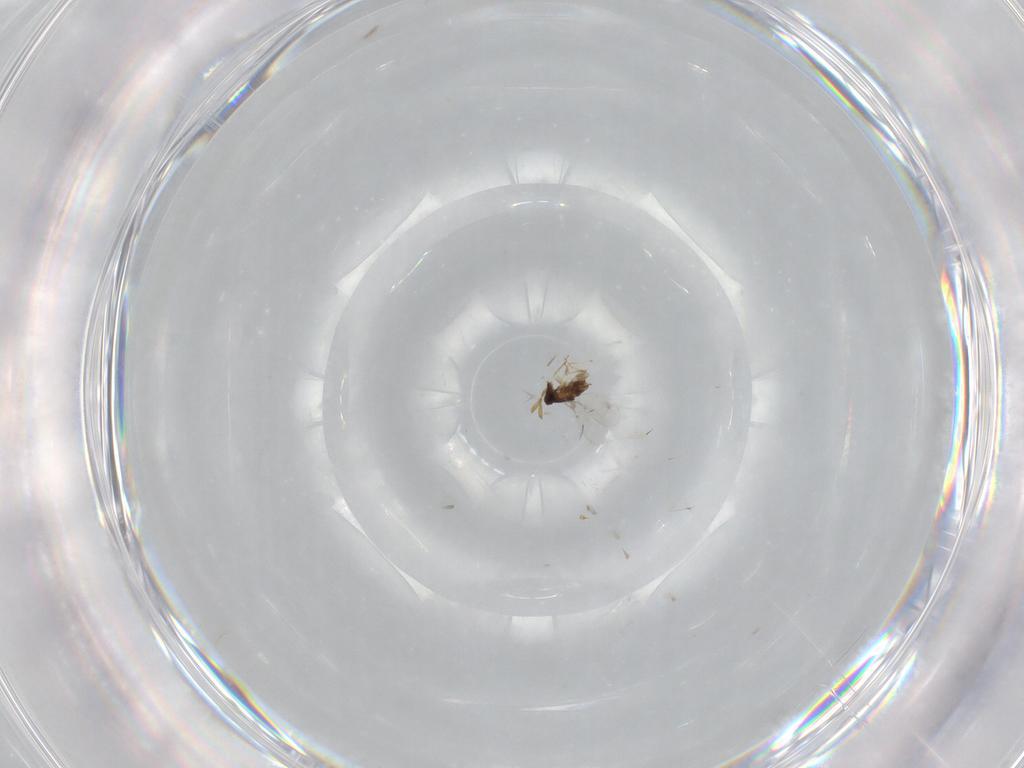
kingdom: Animalia
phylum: Arthropoda
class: Insecta
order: Hymenoptera
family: Encyrtidae
